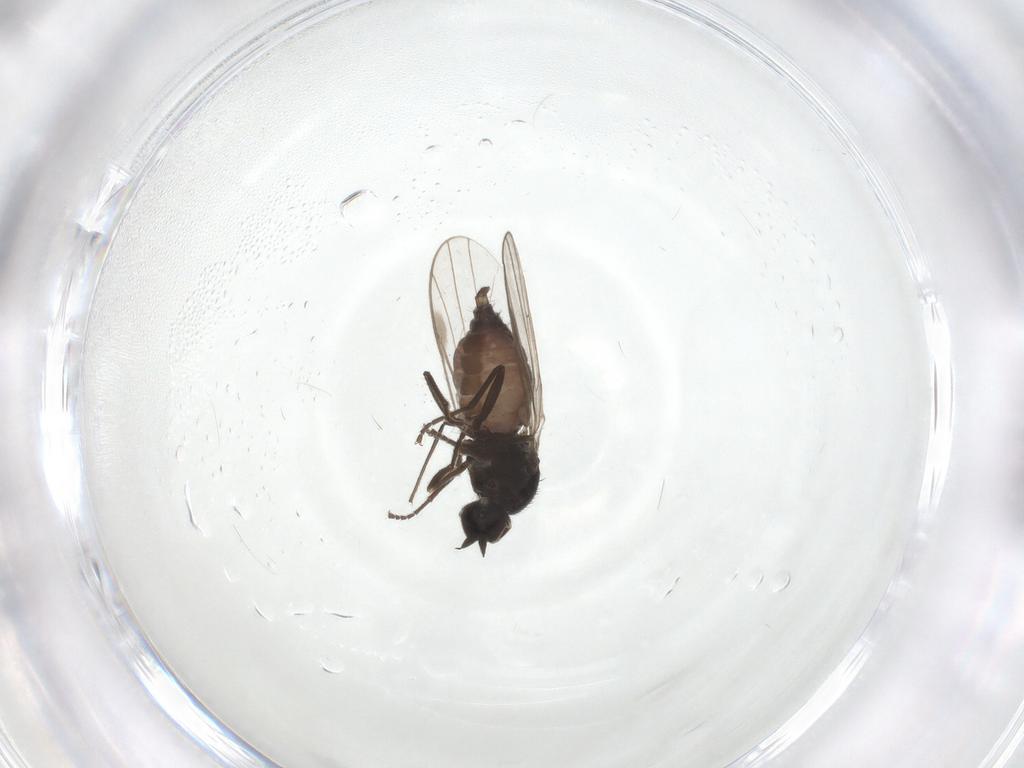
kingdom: Animalia
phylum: Arthropoda
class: Insecta
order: Diptera
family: Hybotidae
